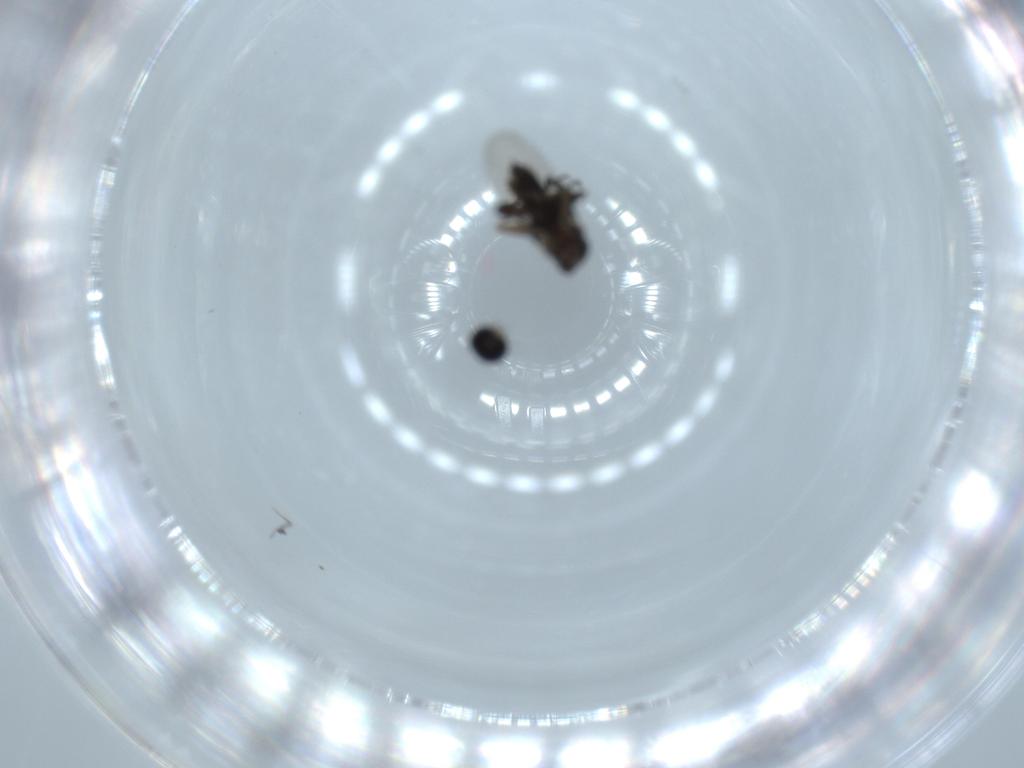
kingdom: Animalia
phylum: Arthropoda
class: Insecta
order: Diptera
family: Phoridae
